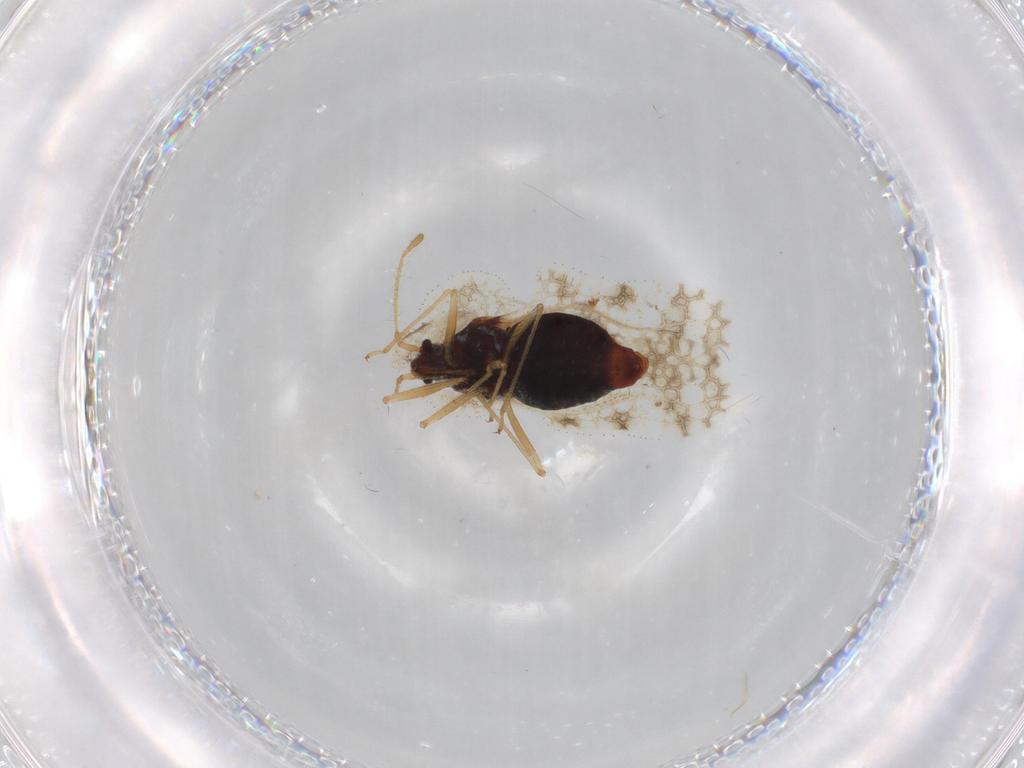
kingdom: Animalia
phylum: Arthropoda
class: Insecta
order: Hemiptera
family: Tingidae
